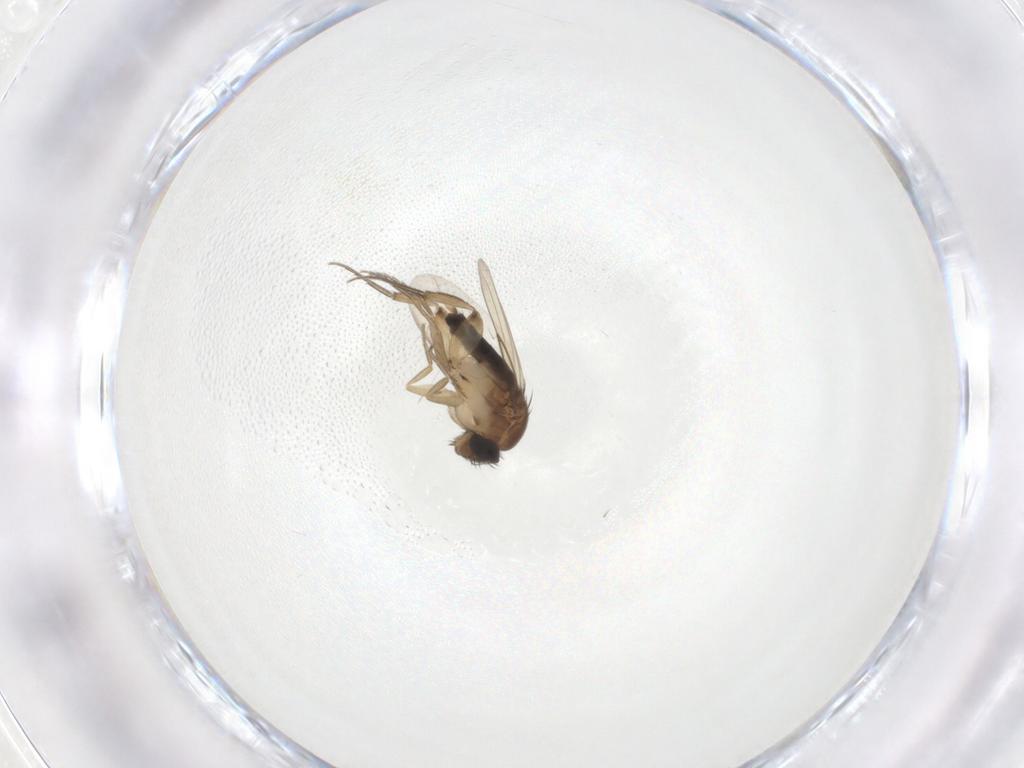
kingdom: Animalia
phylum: Arthropoda
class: Insecta
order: Diptera
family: Phoridae
